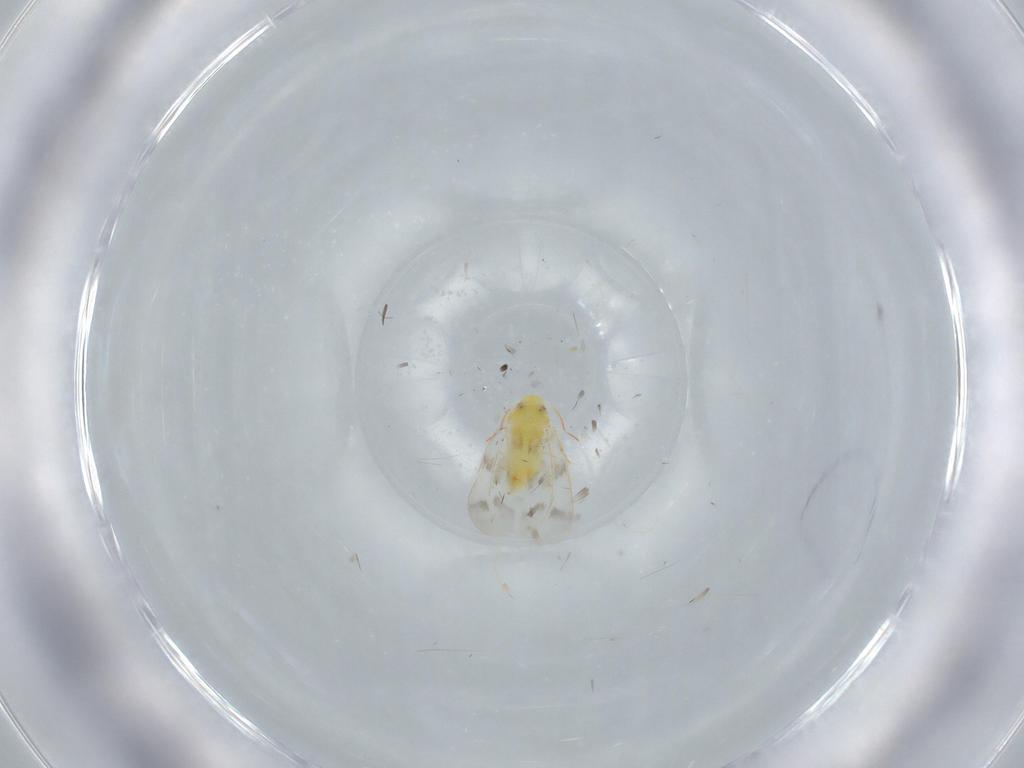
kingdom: Animalia
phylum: Arthropoda
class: Insecta
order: Hemiptera
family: Aleyrodidae
